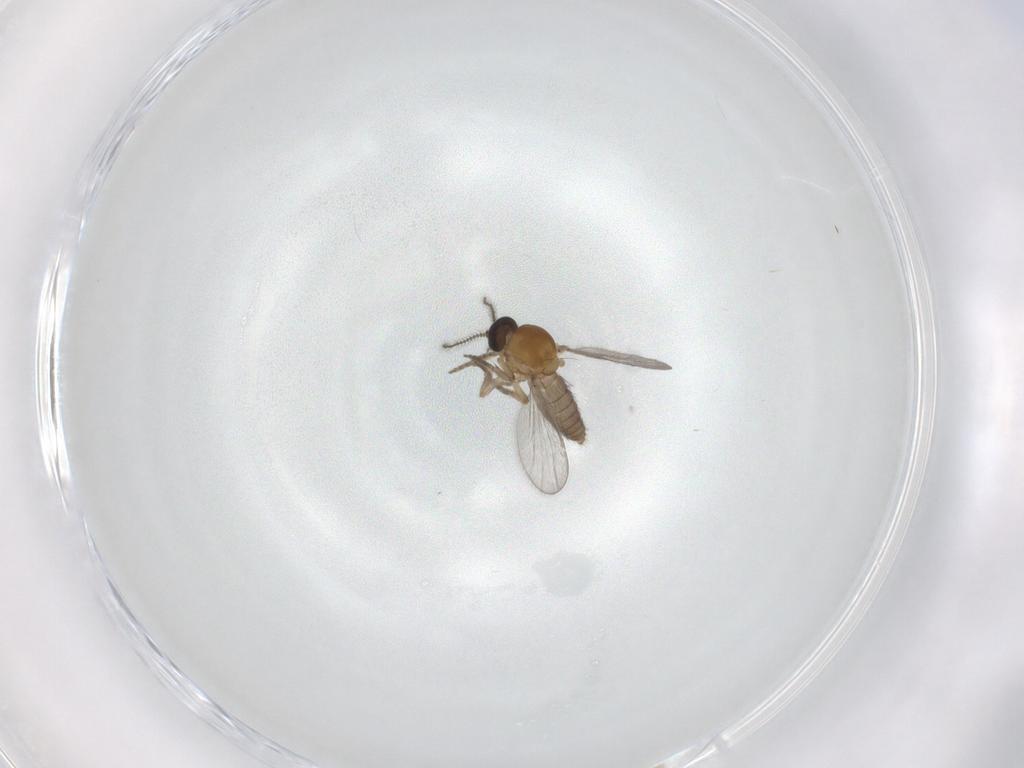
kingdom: Animalia
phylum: Arthropoda
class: Insecta
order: Diptera
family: Ceratopogonidae
